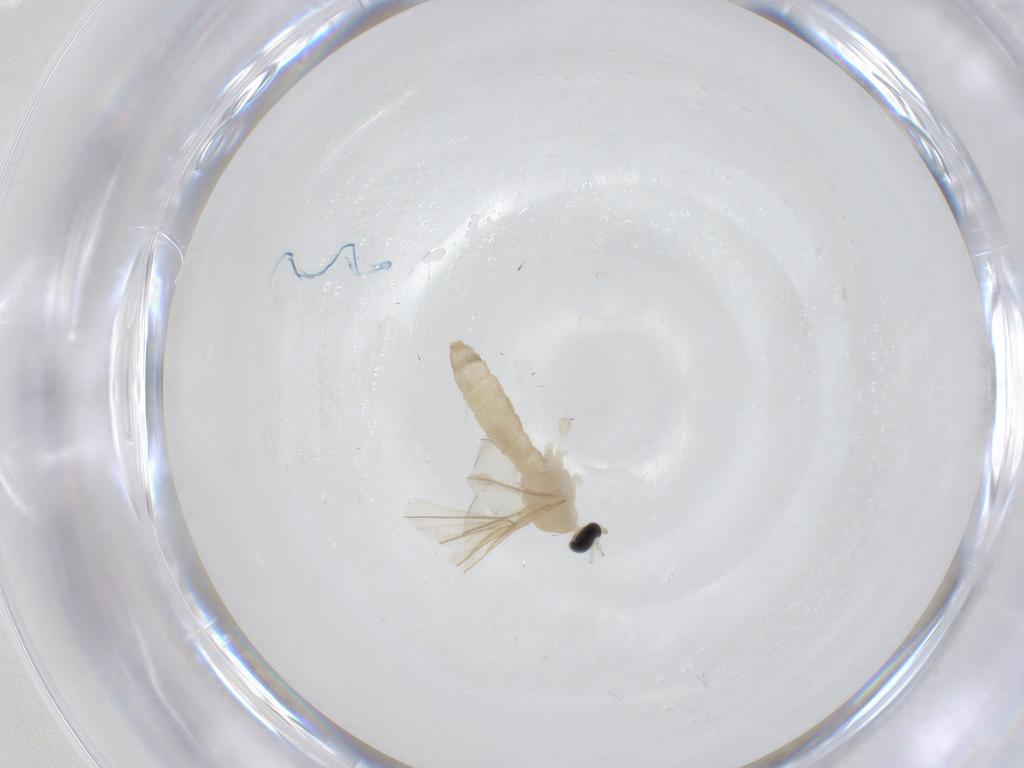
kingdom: Animalia
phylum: Arthropoda
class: Insecta
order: Diptera
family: Cecidomyiidae
